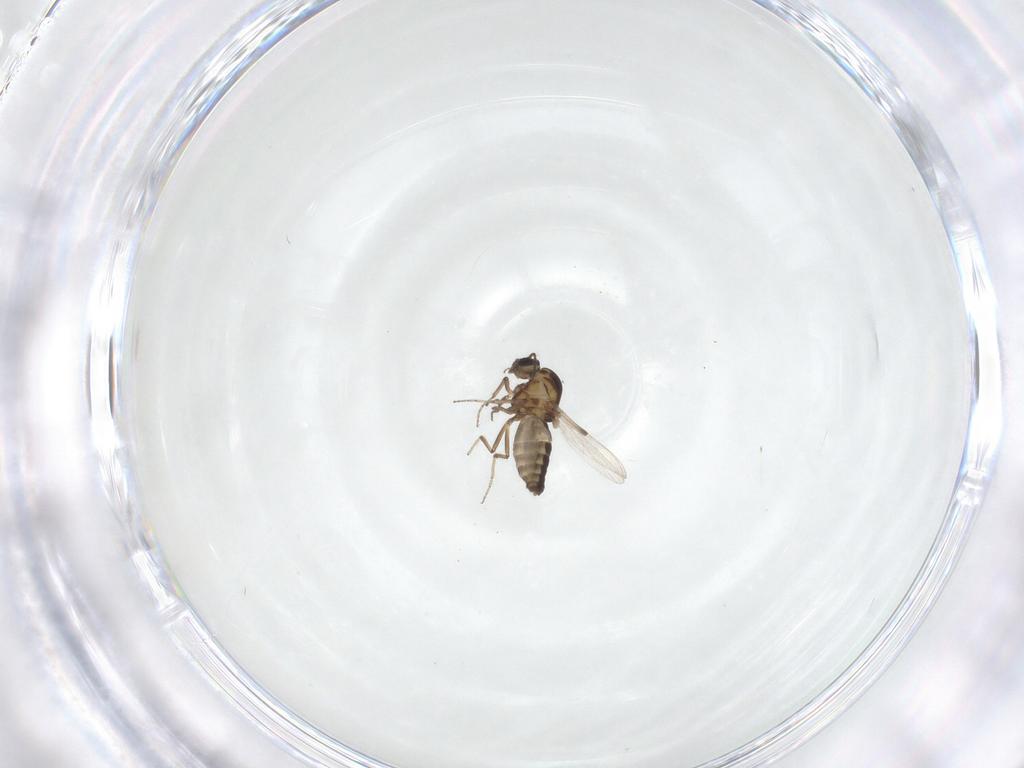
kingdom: Animalia
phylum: Arthropoda
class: Insecta
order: Diptera
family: Ceratopogonidae
